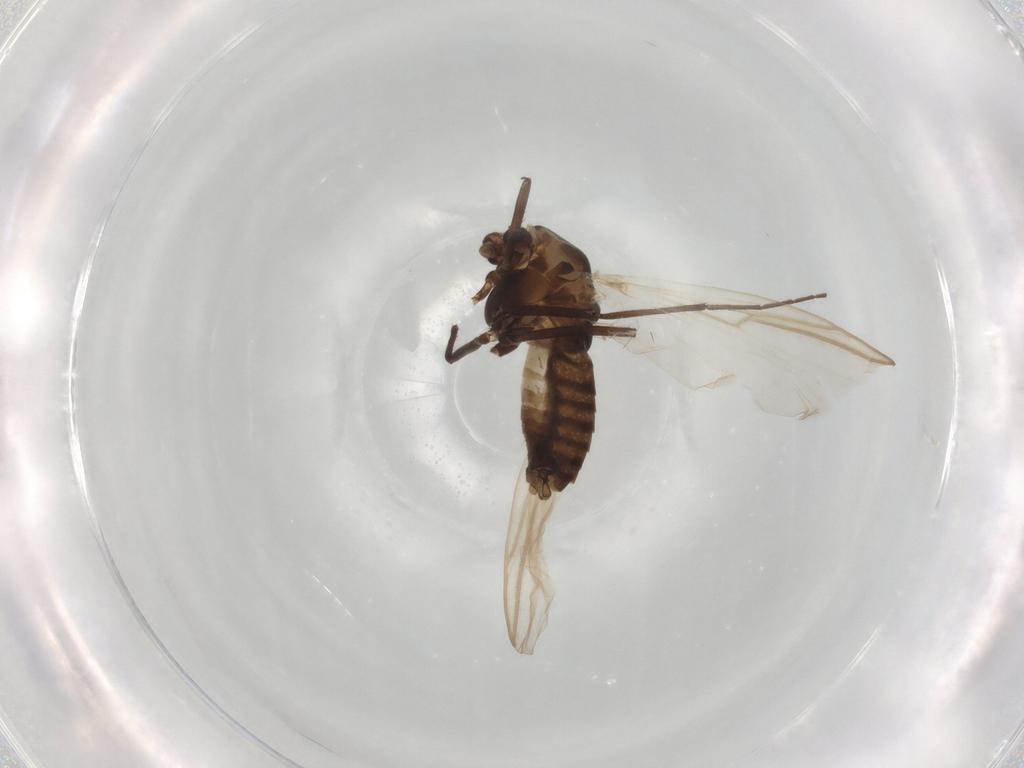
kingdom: Animalia
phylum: Arthropoda
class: Insecta
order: Diptera
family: Chironomidae
